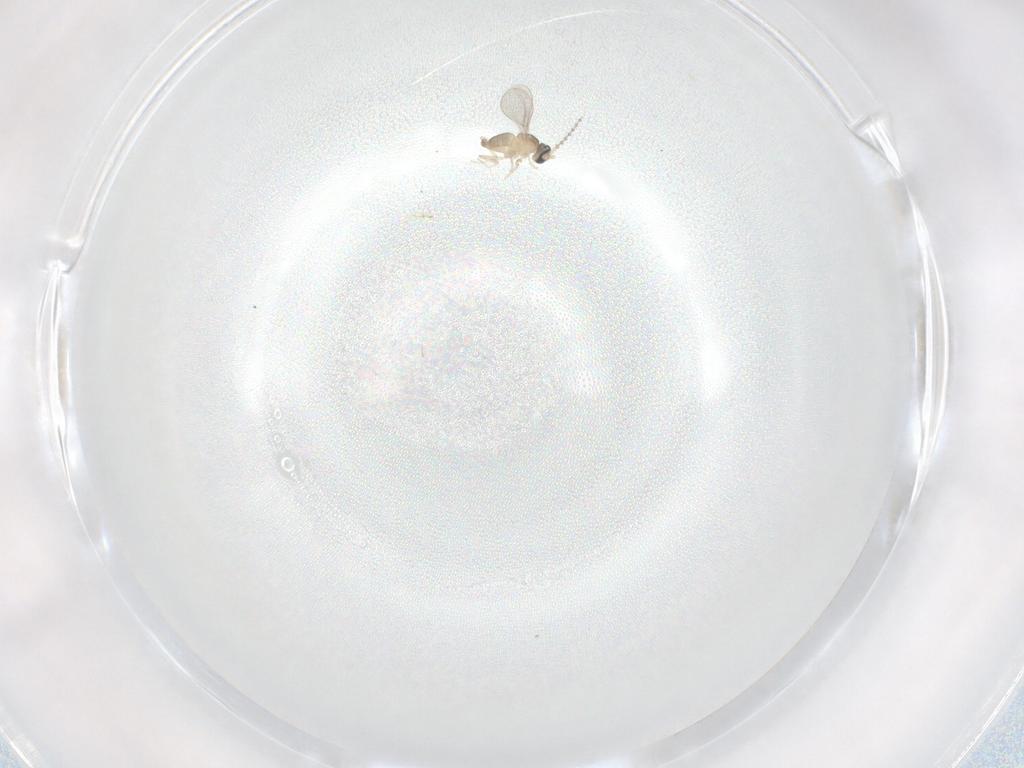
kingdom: Animalia
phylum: Arthropoda
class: Insecta
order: Diptera
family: Cecidomyiidae
